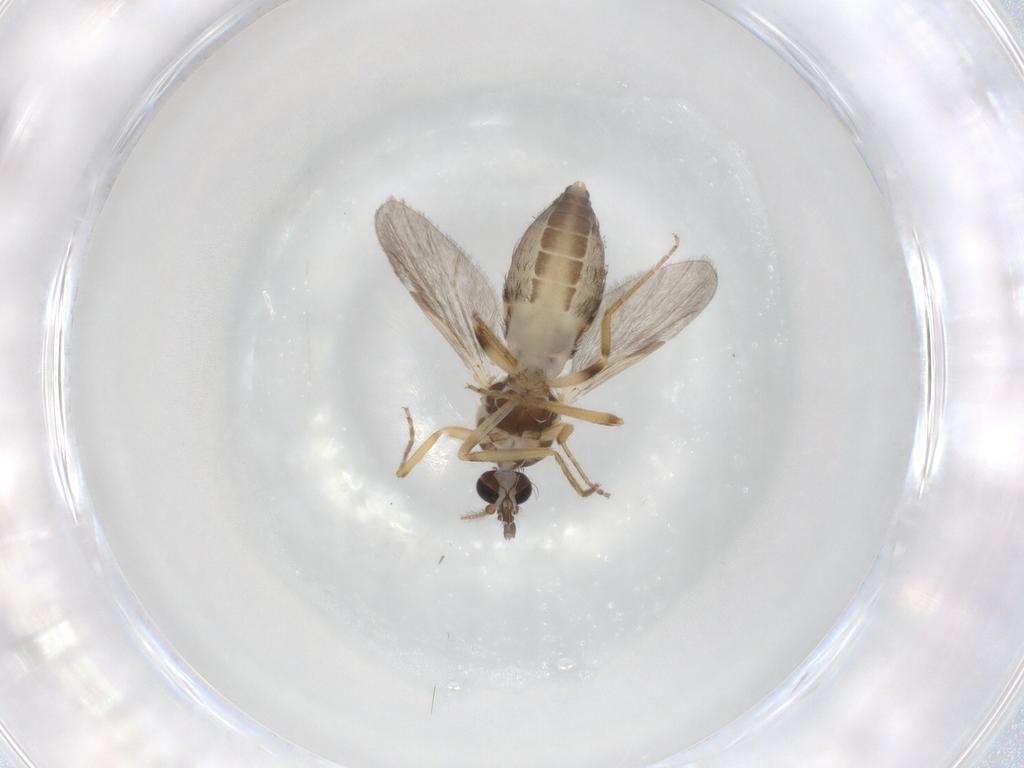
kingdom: Animalia
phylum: Arthropoda
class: Insecta
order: Diptera
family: Ceratopogonidae
